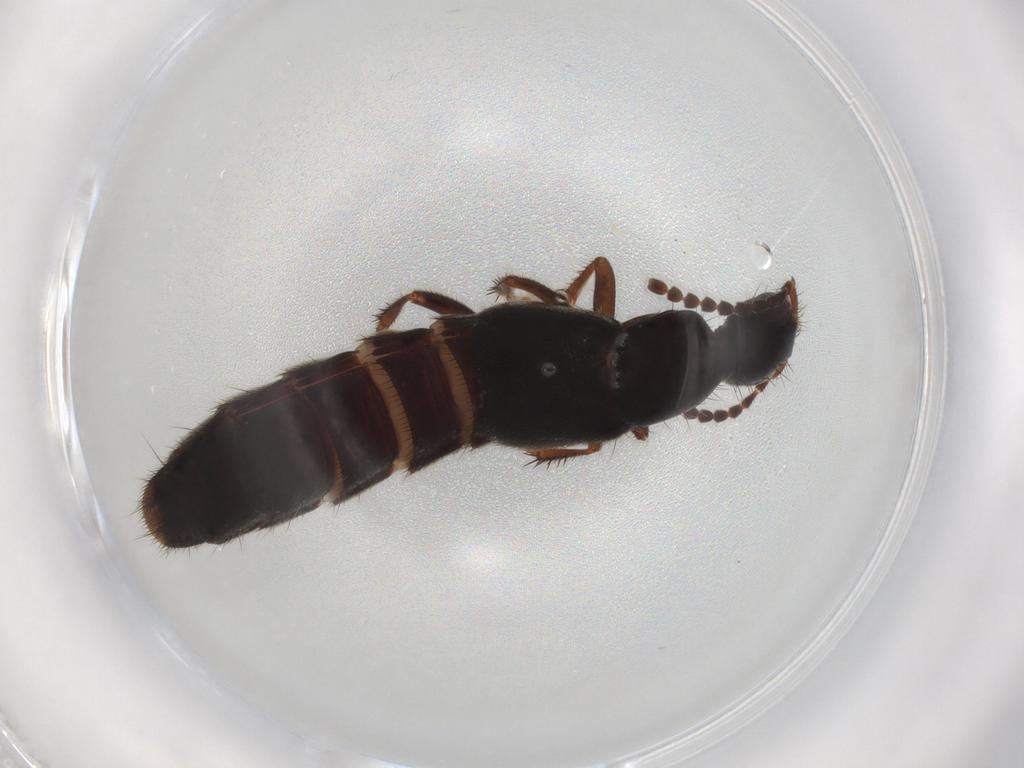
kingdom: Animalia
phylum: Arthropoda
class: Insecta
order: Coleoptera
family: Staphylinidae
